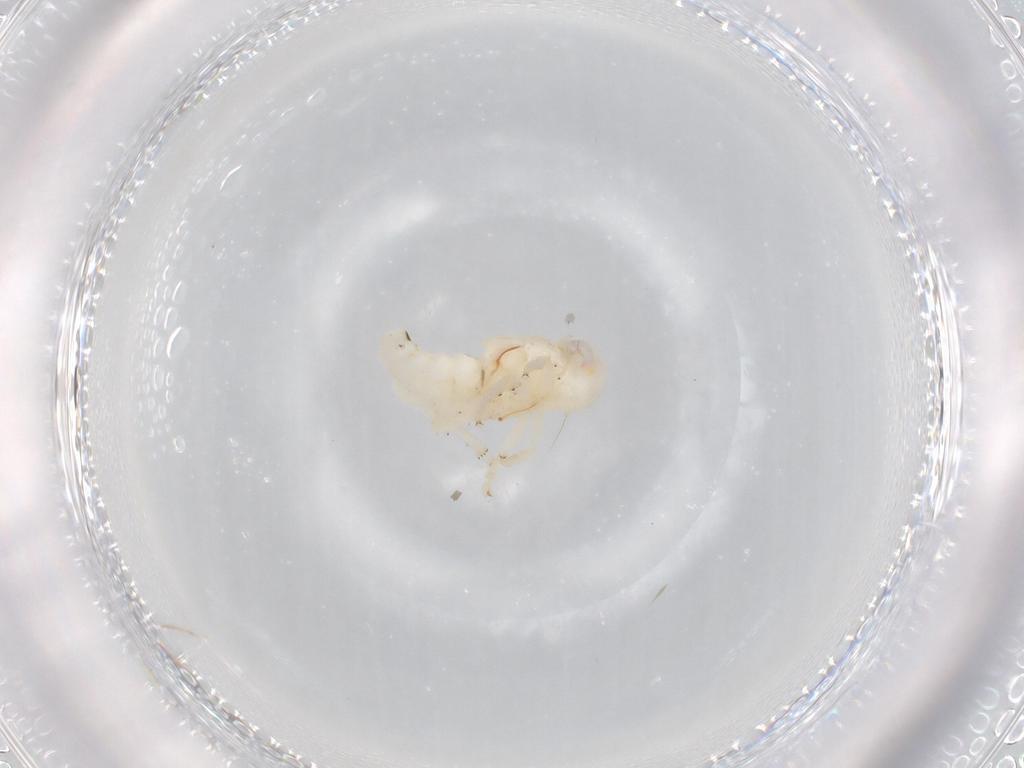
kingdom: Animalia
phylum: Arthropoda
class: Insecta
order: Hemiptera
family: Nogodinidae
